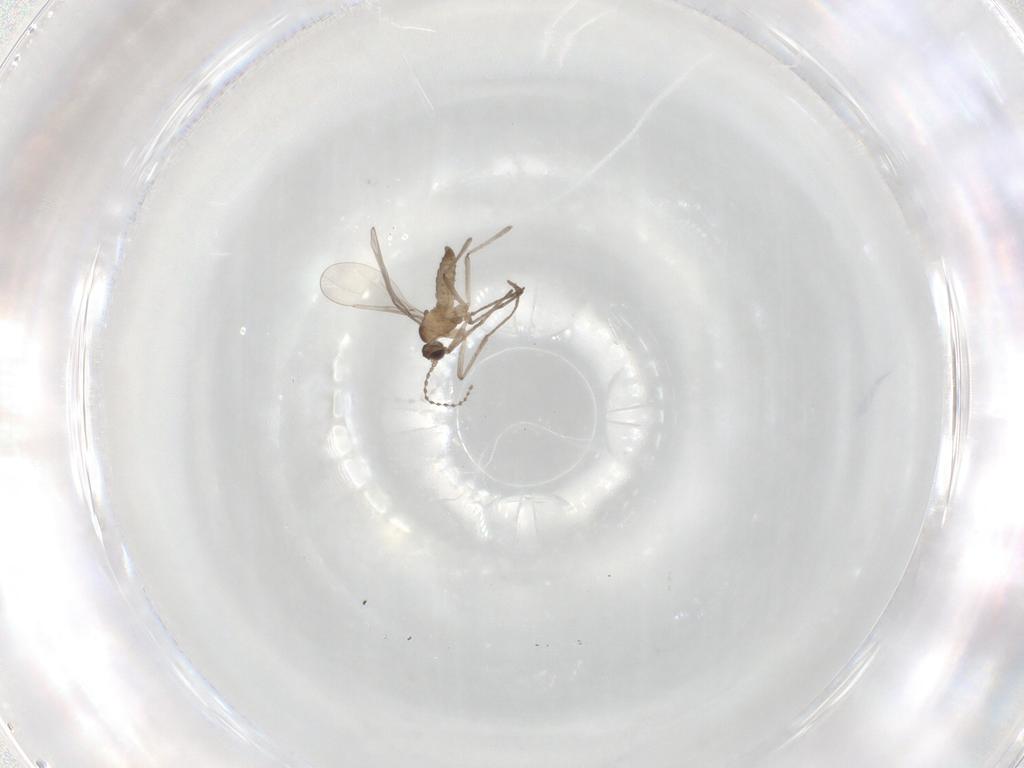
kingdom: Animalia
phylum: Arthropoda
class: Insecta
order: Diptera
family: Cecidomyiidae
